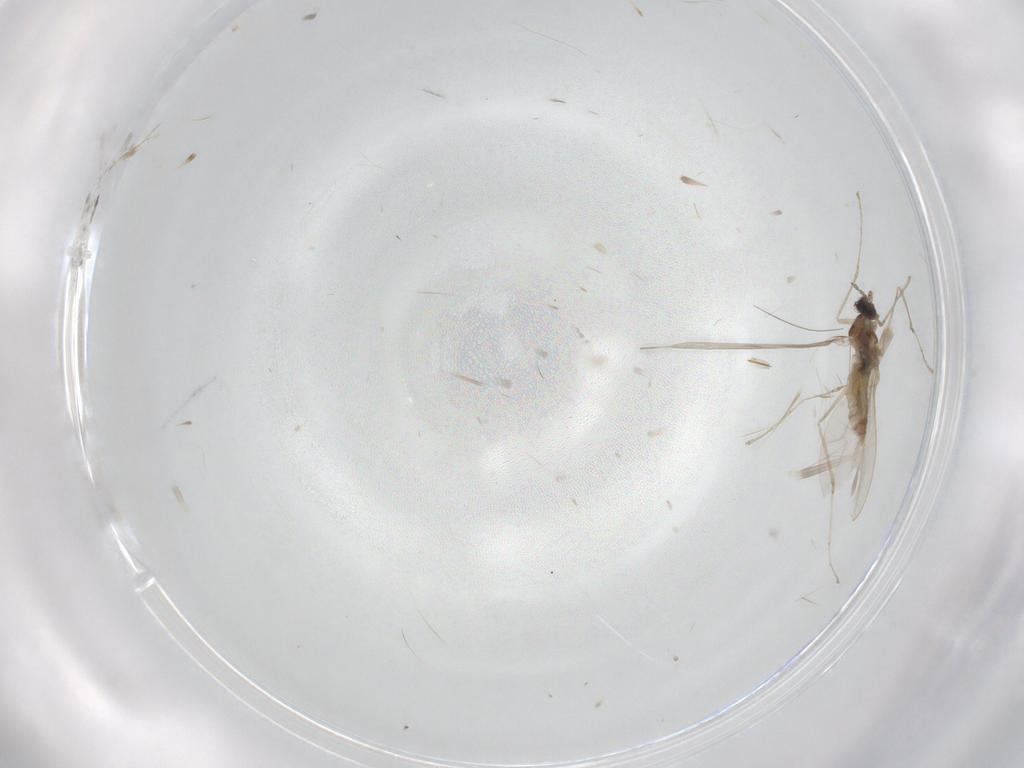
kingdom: Animalia
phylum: Arthropoda
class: Insecta
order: Diptera
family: Cecidomyiidae
